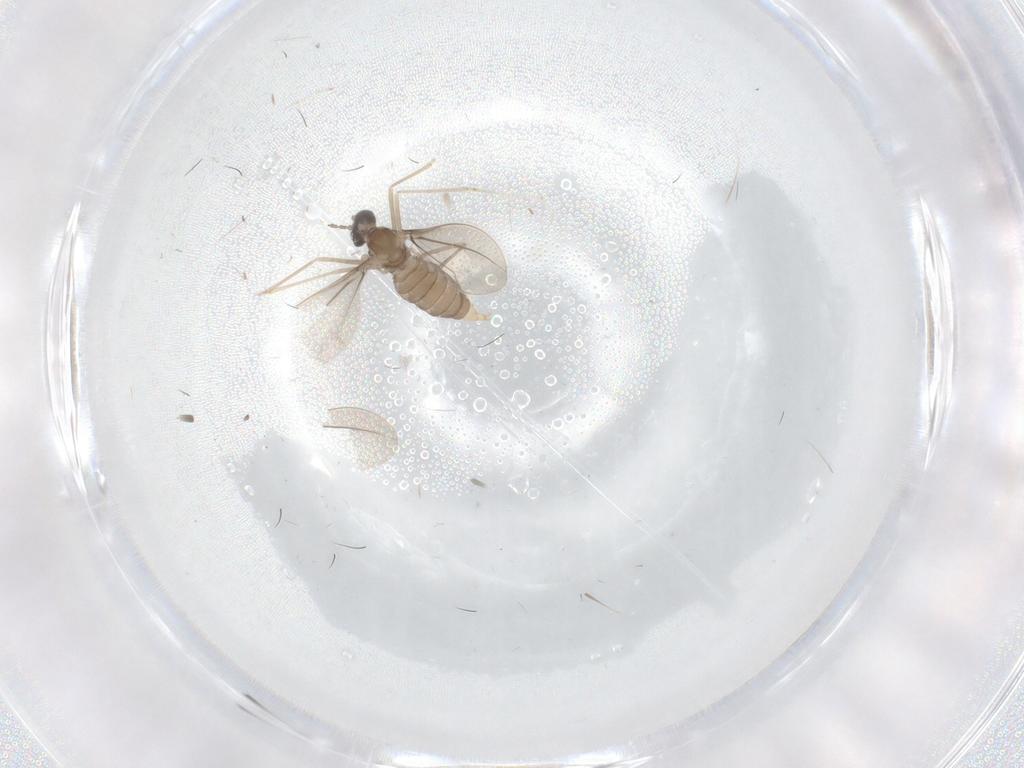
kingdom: Animalia
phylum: Arthropoda
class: Insecta
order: Diptera
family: Cecidomyiidae
